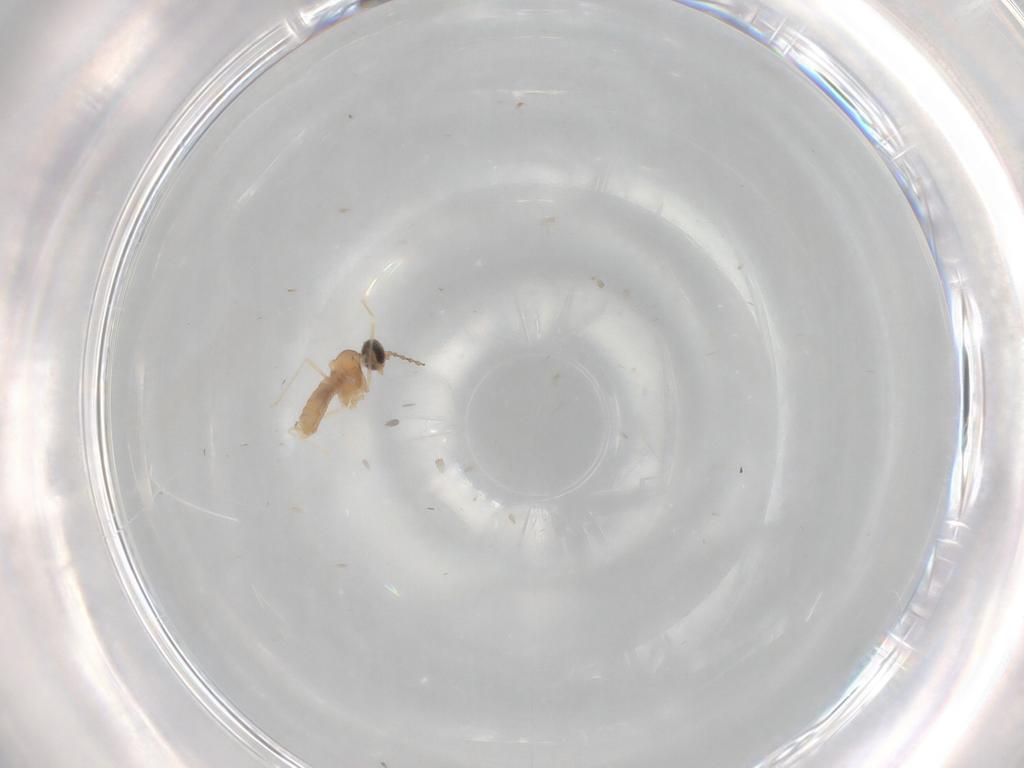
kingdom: Animalia
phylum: Arthropoda
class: Insecta
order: Diptera
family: Cecidomyiidae
